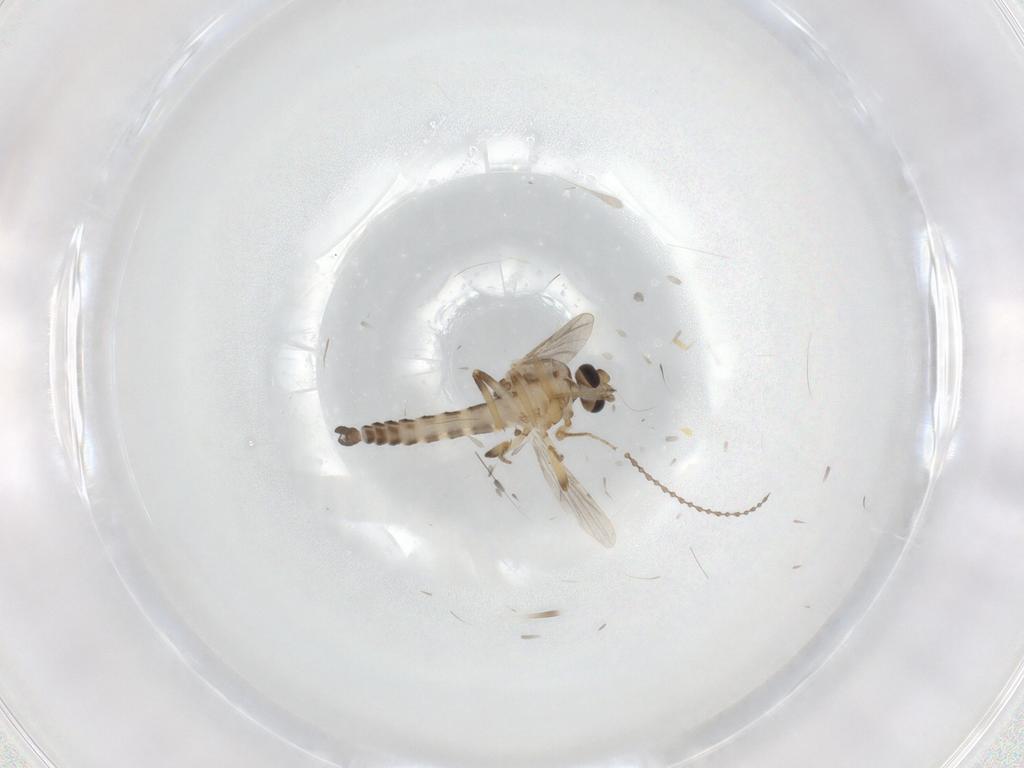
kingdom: Animalia
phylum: Arthropoda
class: Insecta
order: Diptera
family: Ceratopogonidae
